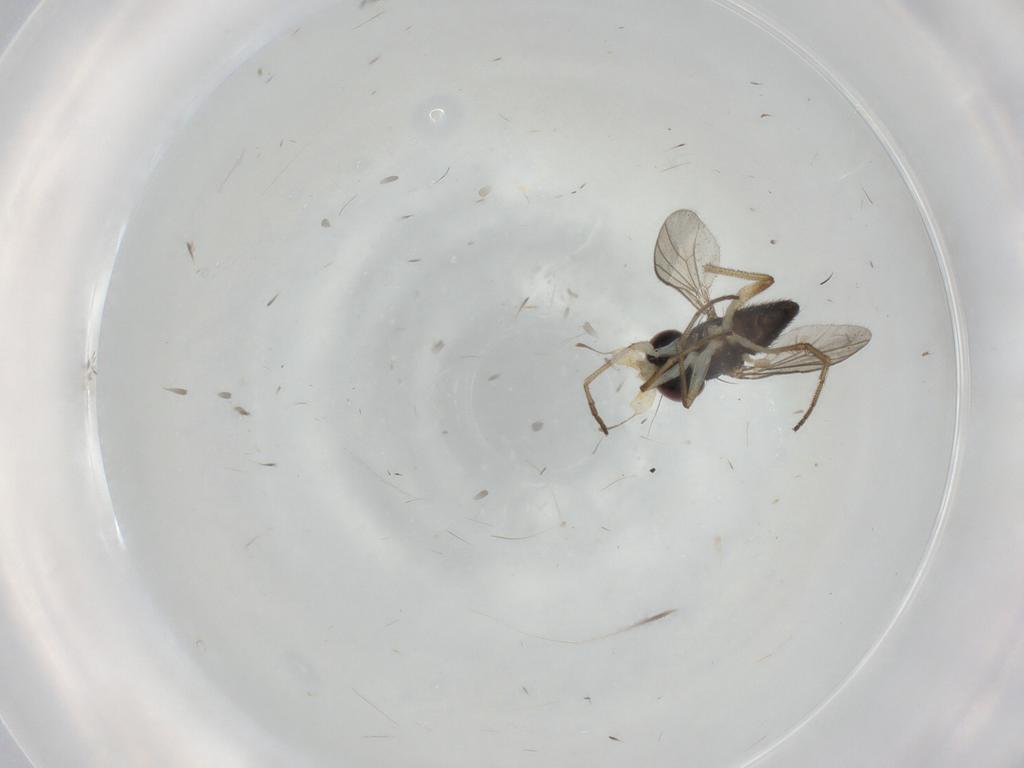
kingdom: Animalia
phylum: Arthropoda
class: Insecta
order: Diptera
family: Dolichopodidae
